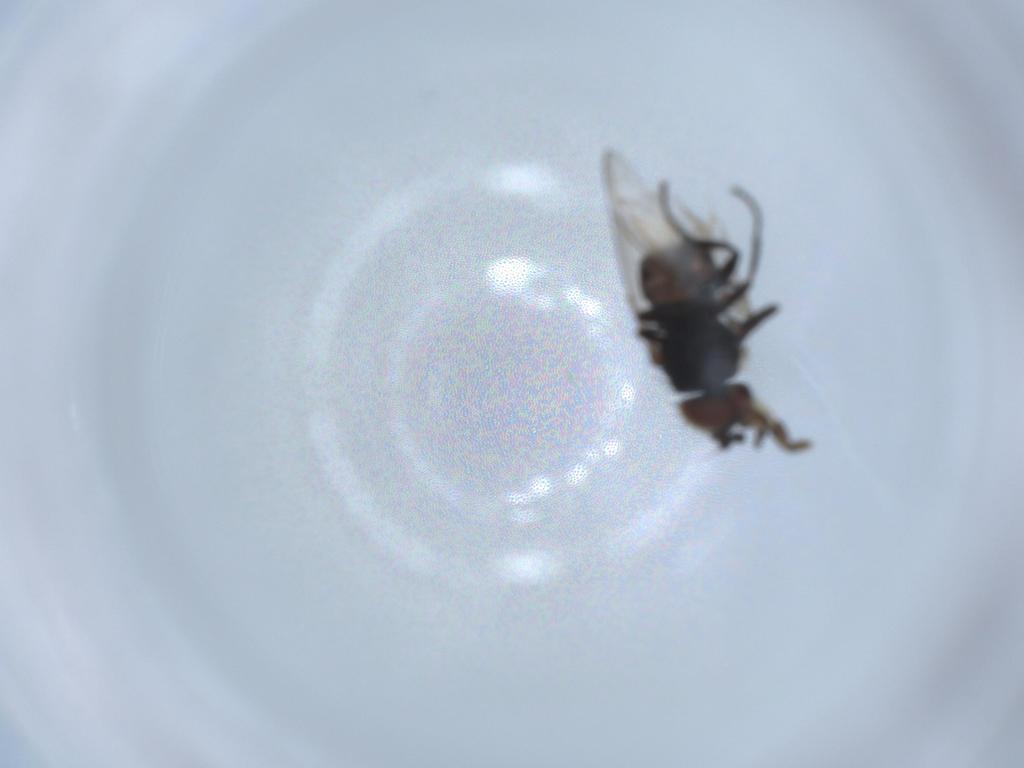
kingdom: Animalia
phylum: Arthropoda
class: Insecta
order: Diptera
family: Milichiidae
